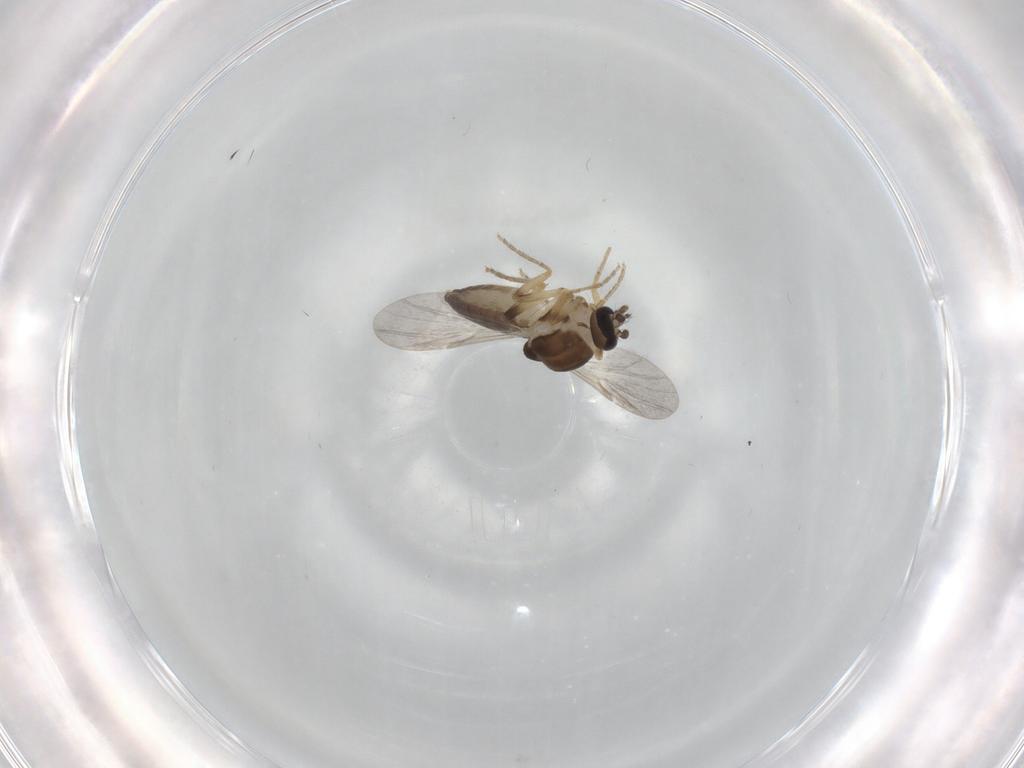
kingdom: Animalia
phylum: Arthropoda
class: Insecta
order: Diptera
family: Ceratopogonidae
